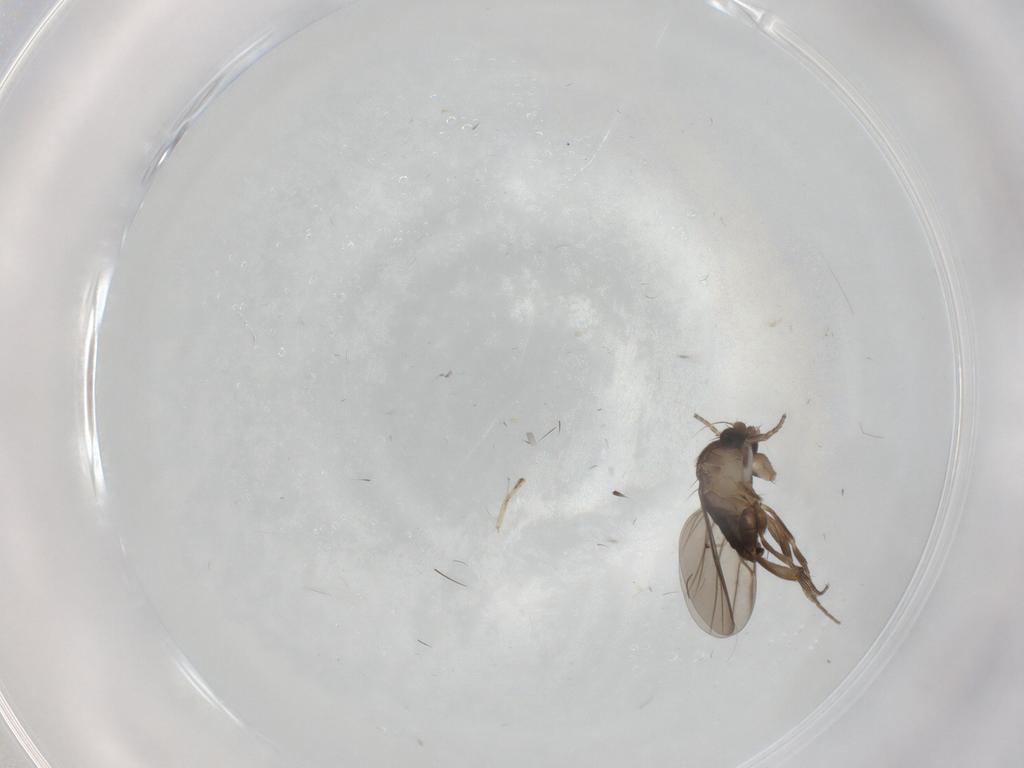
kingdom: Animalia
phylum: Arthropoda
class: Insecta
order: Diptera
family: Chironomidae
